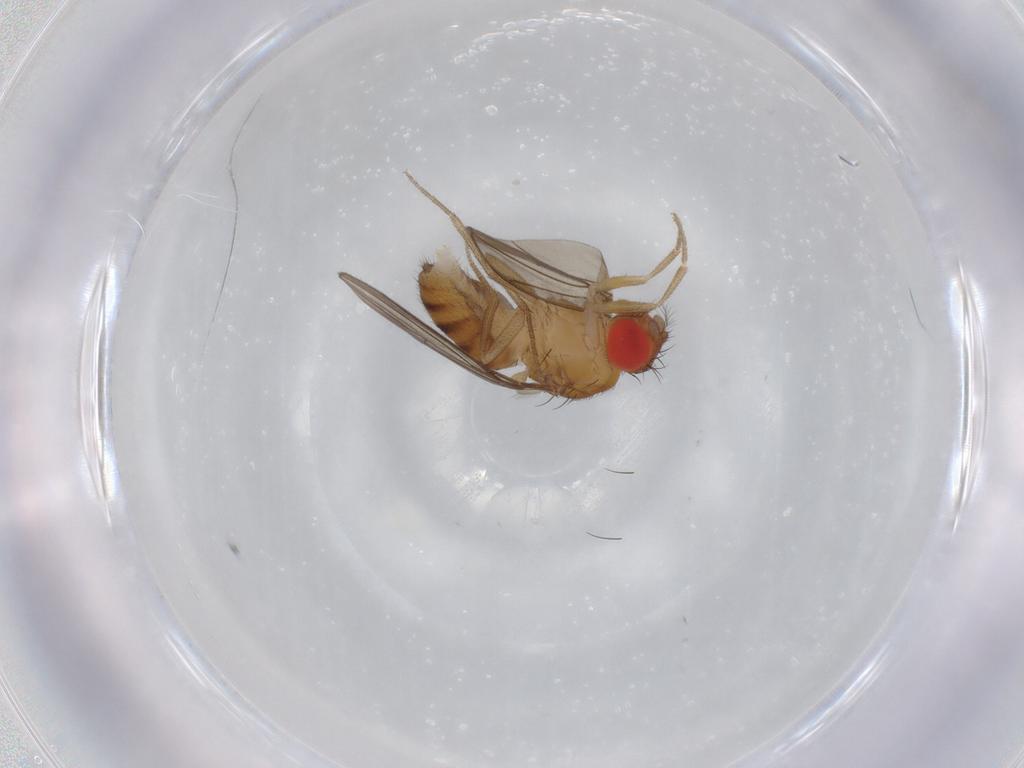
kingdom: Animalia
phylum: Arthropoda
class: Insecta
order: Diptera
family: Drosophilidae
